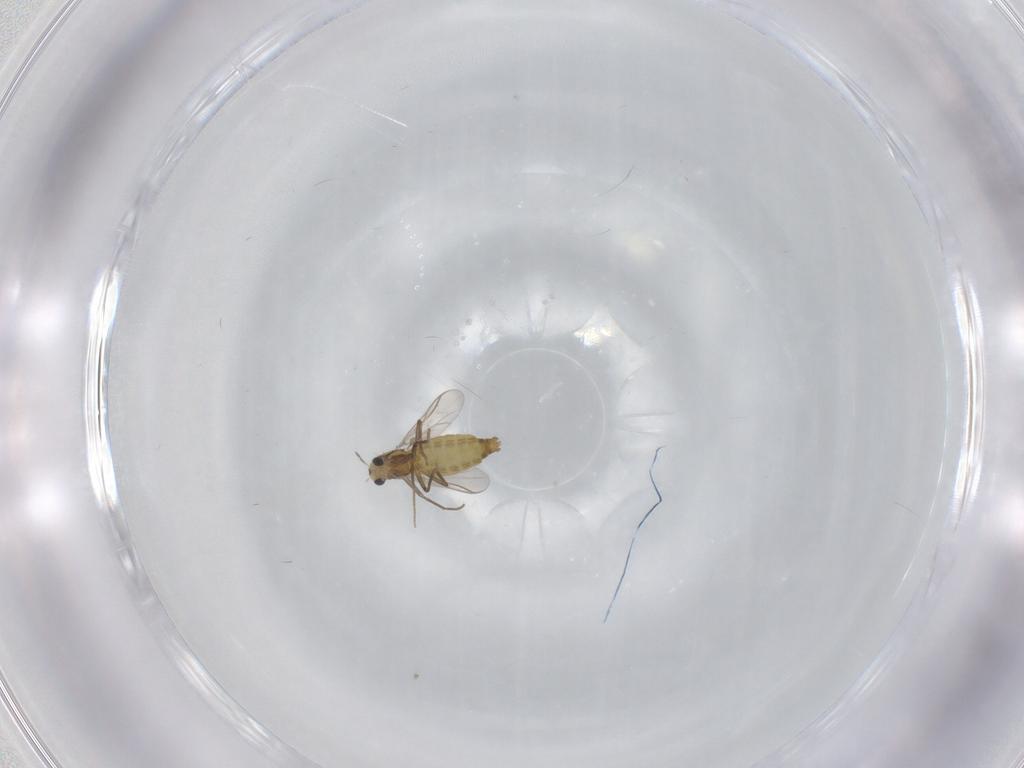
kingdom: Animalia
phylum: Arthropoda
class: Insecta
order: Diptera
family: Chironomidae
